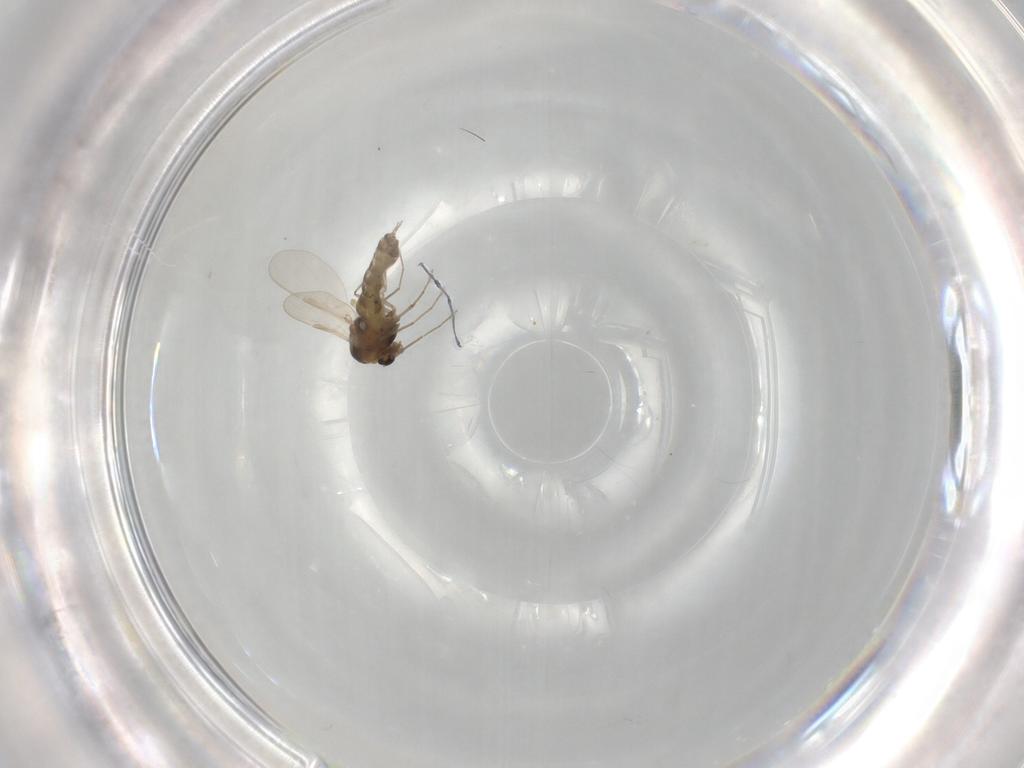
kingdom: Animalia
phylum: Arthropoda
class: Insecta
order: Diptera
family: Chironomidae
